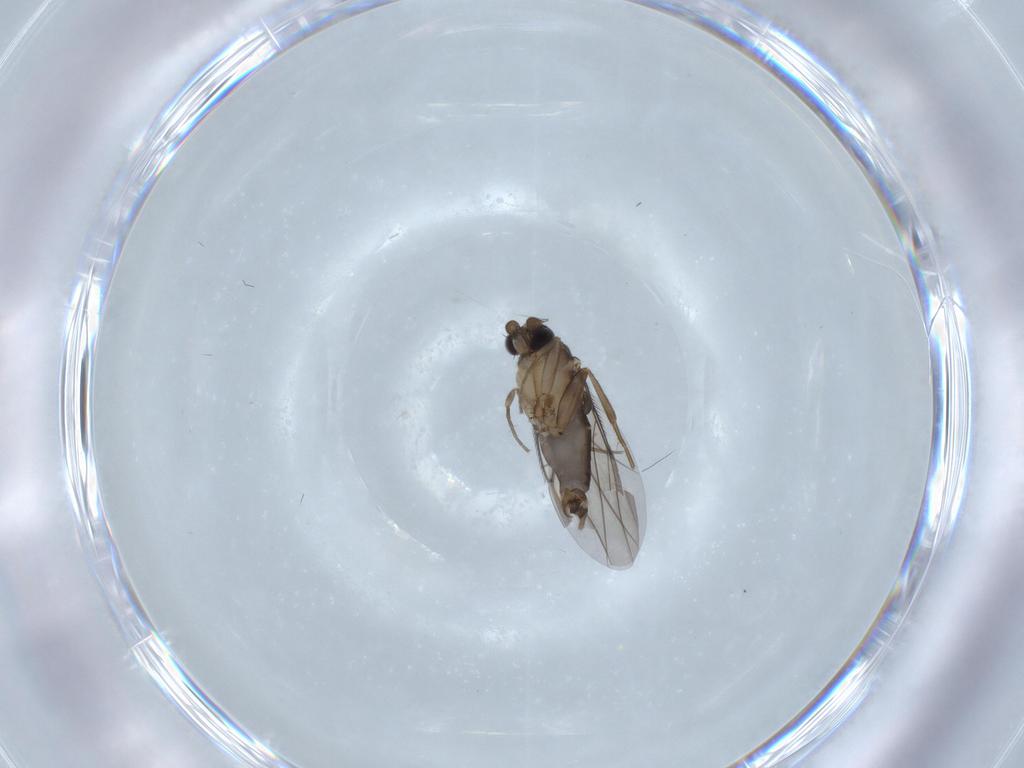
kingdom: Animalia
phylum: Arthropoda
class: Insecta
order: Diptera
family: Phoridae
